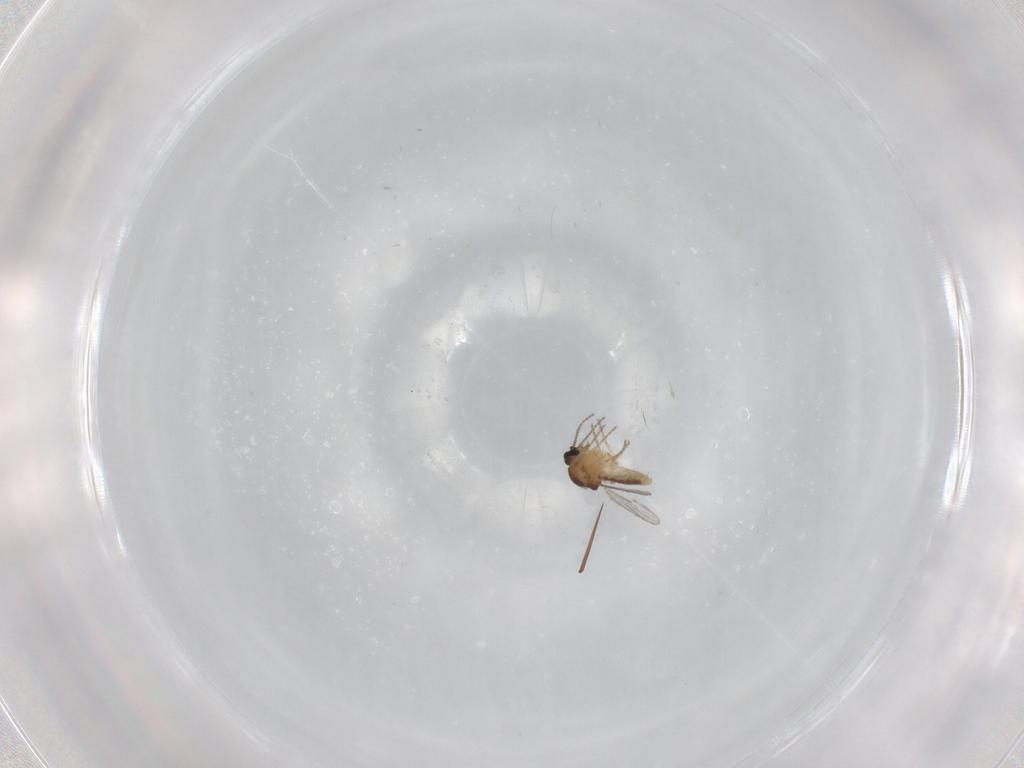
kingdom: Animalia
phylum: Arthropoda
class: Insecta
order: Diptera
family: Ceratopogonidae
